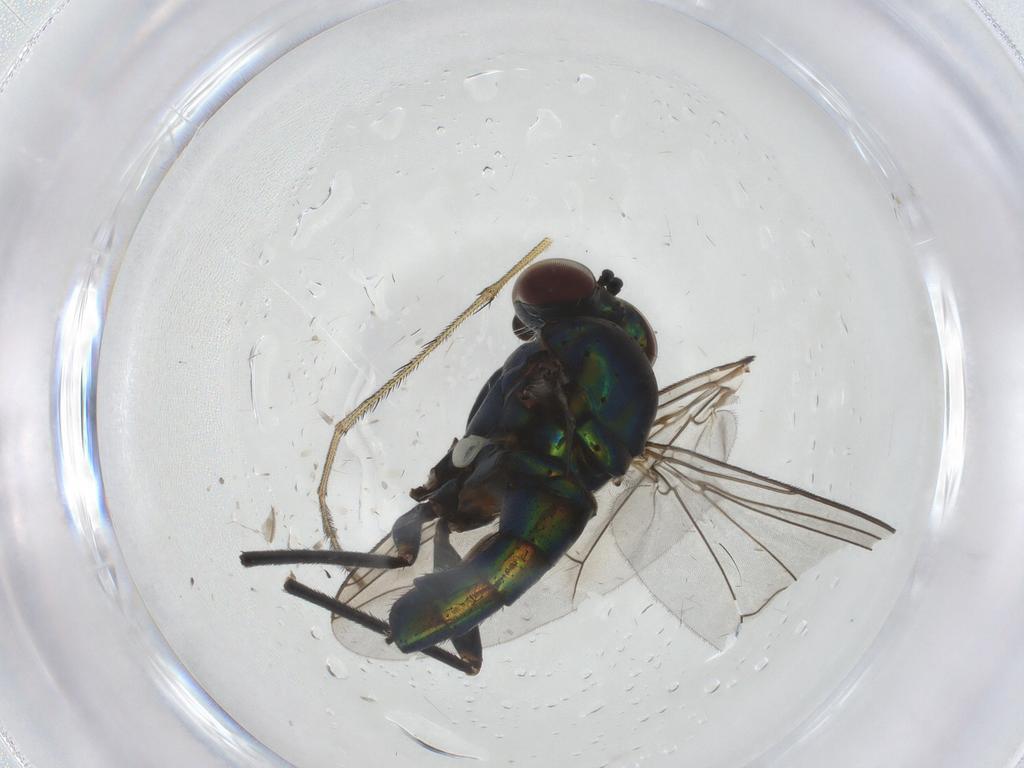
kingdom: Animalia
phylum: Arthropoda
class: Insecta
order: Diptera
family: Dolichopodidae
